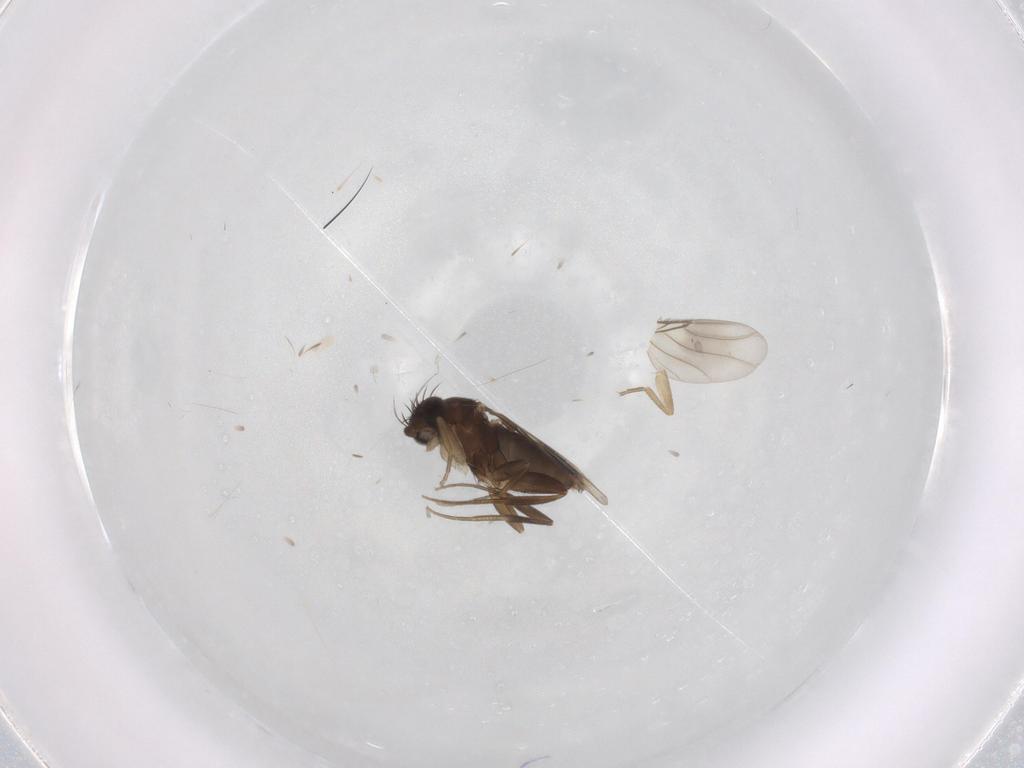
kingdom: Animalia
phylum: Arthropoda
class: Insecta
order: Diptera
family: Phoridae
